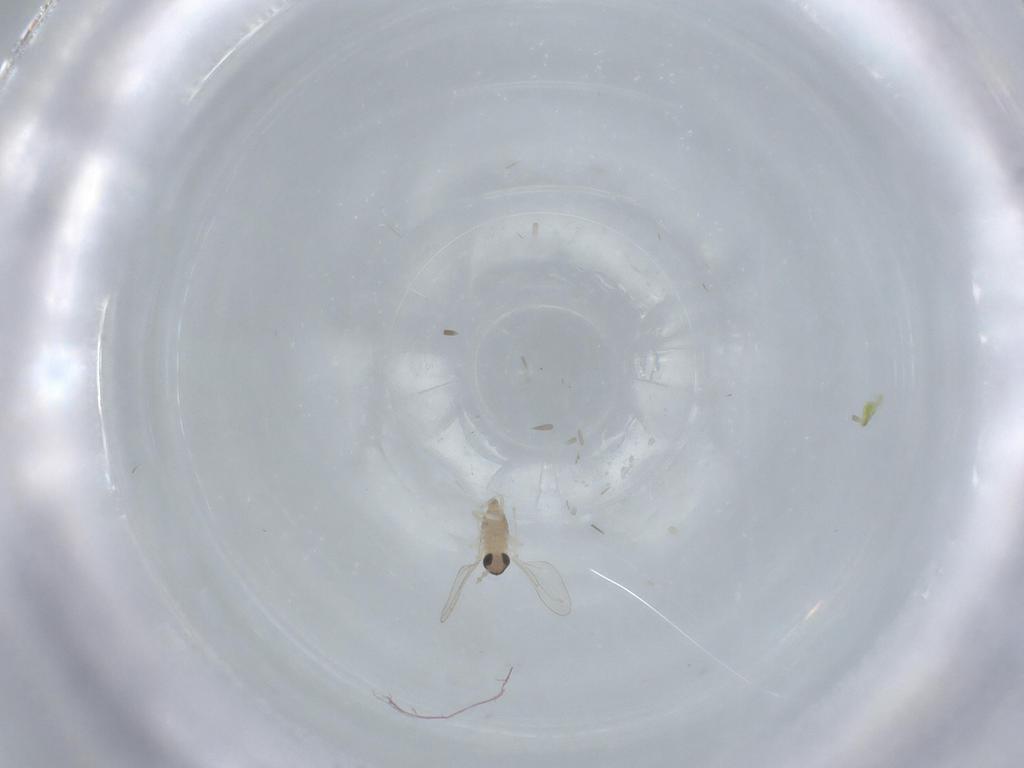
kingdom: Animalia
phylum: Arthropoda
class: Insecta
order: Diptera
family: Cecidomyiidae
